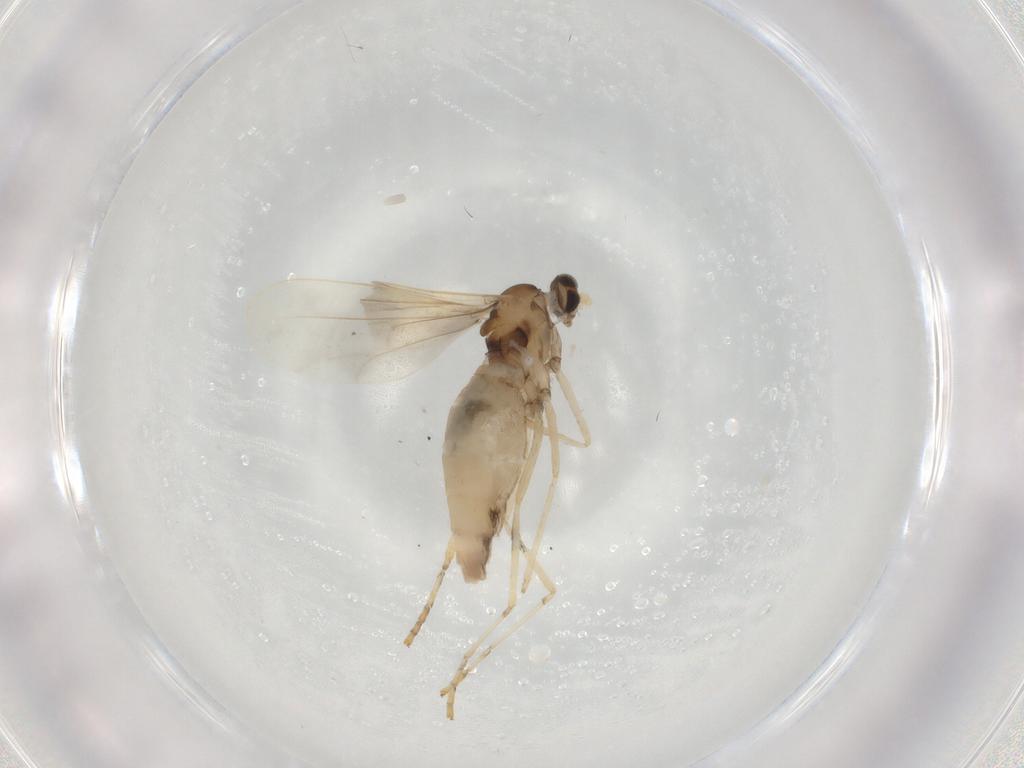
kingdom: Animalia
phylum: Arthropoda
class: Insecta
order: Diptera
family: Cecidomyiidae
